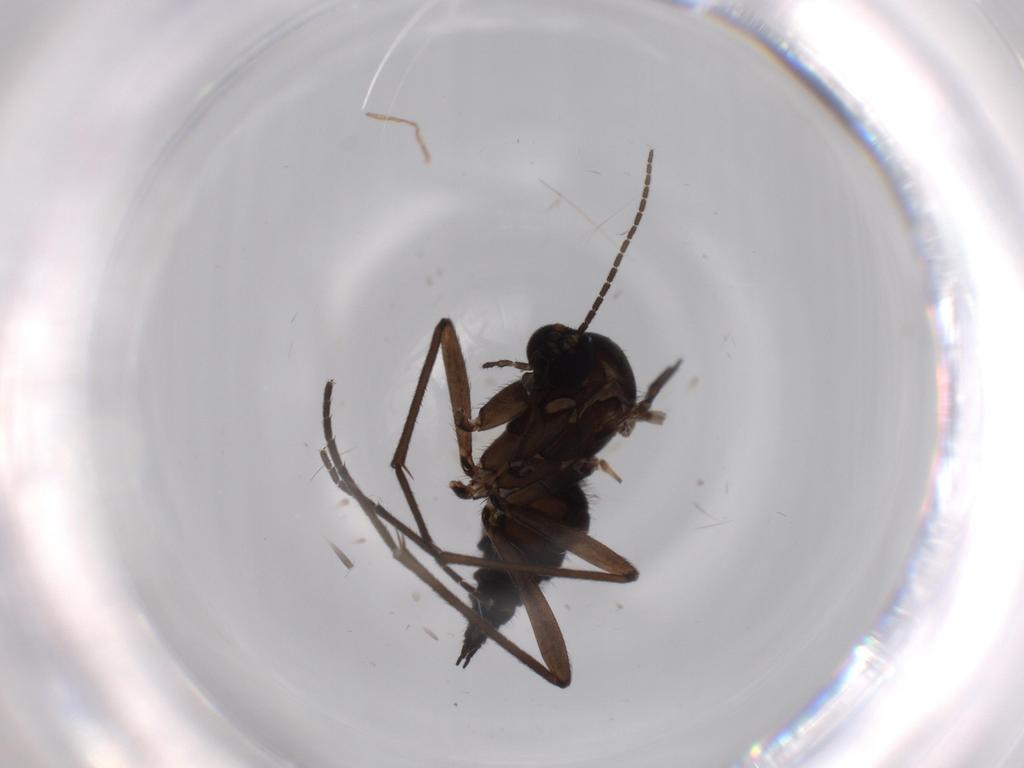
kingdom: Animalia
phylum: Arthropoda
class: Insecta
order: Diptera
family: Sciaridae
